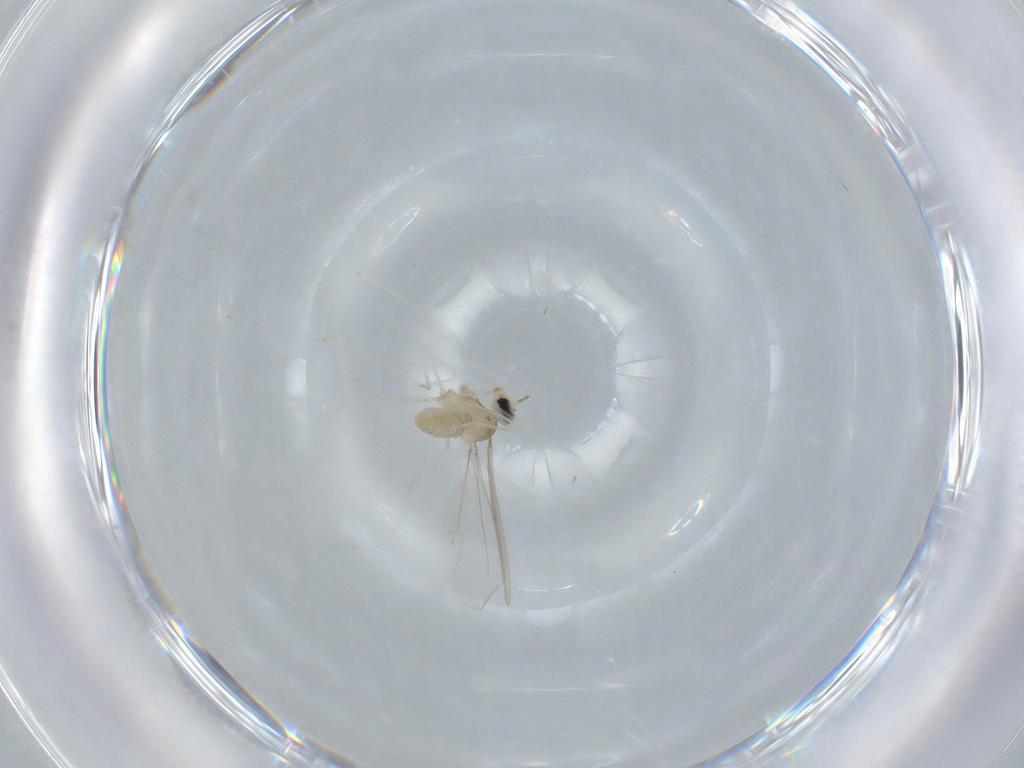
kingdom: Animalia
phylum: Arthropoda
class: Insecta
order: Diptera
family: Cecidomyiidae
